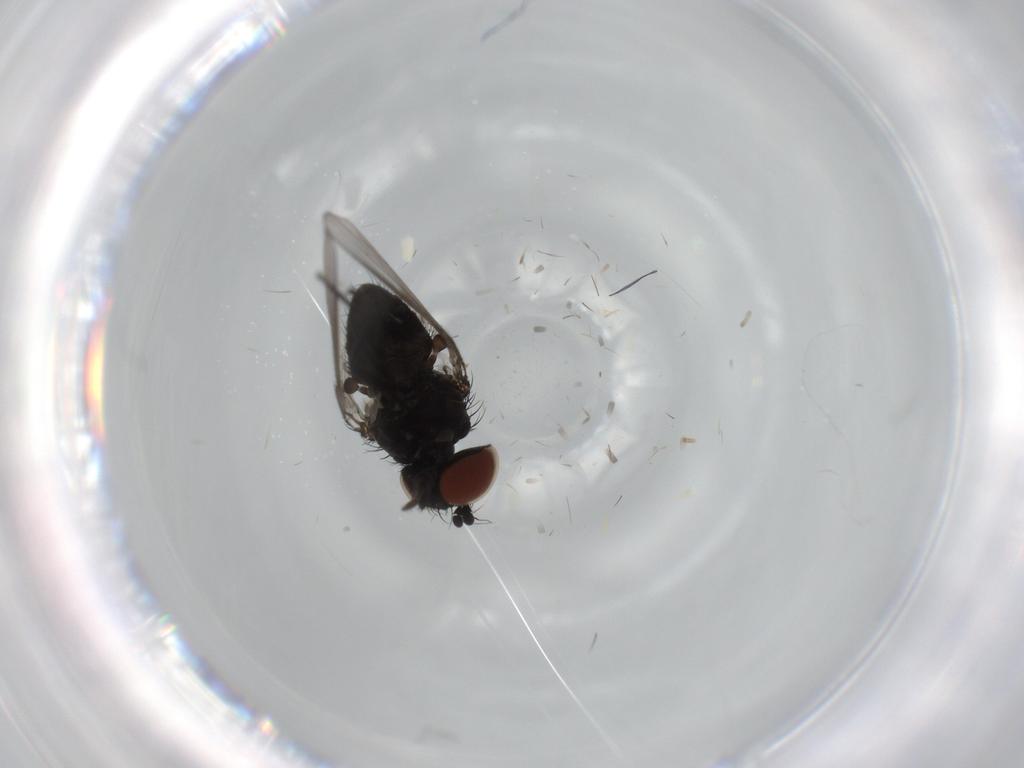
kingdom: Animalia
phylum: Arthropoda
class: Insecta
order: Diptera
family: Milichiidae
